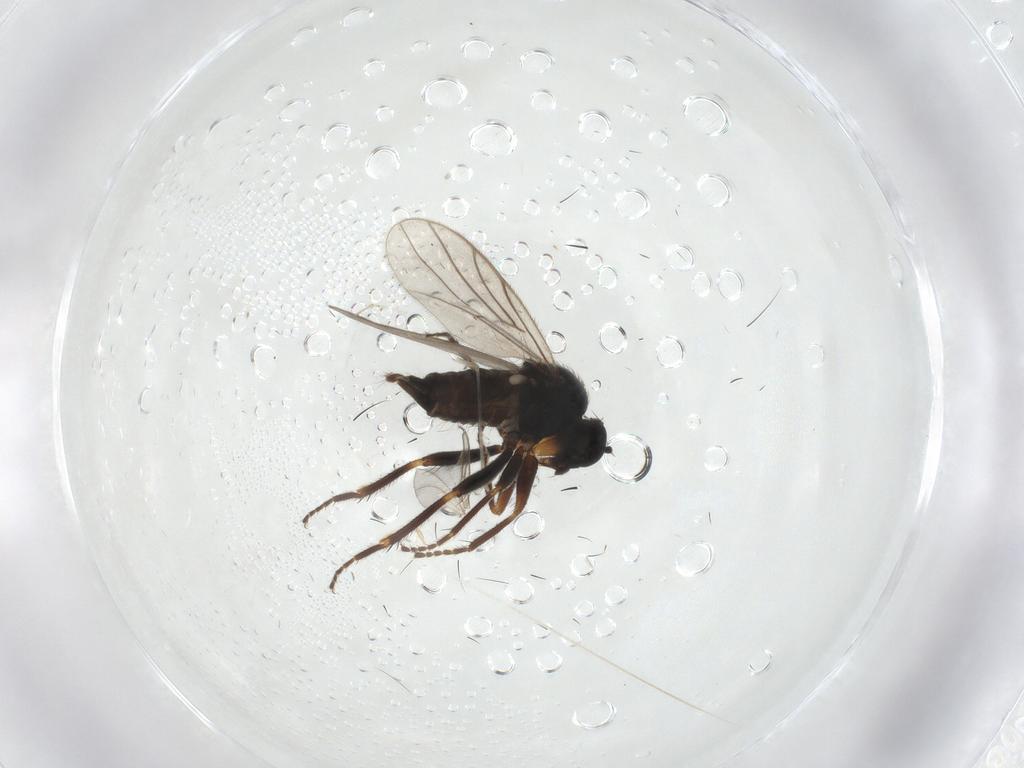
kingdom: Animalia
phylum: Arthropoda
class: Insecta
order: Diptera
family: Sciaridae
